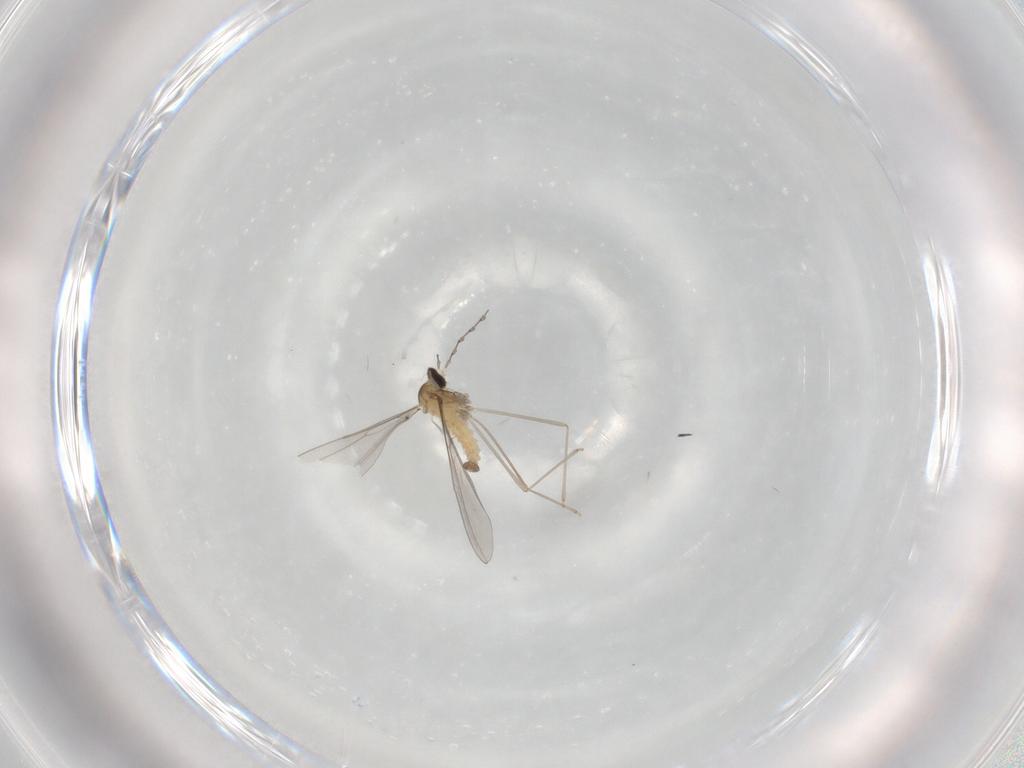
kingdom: Animalia
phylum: Arthropoda
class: Insecta
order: Diptera
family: Cecidomyiidae
